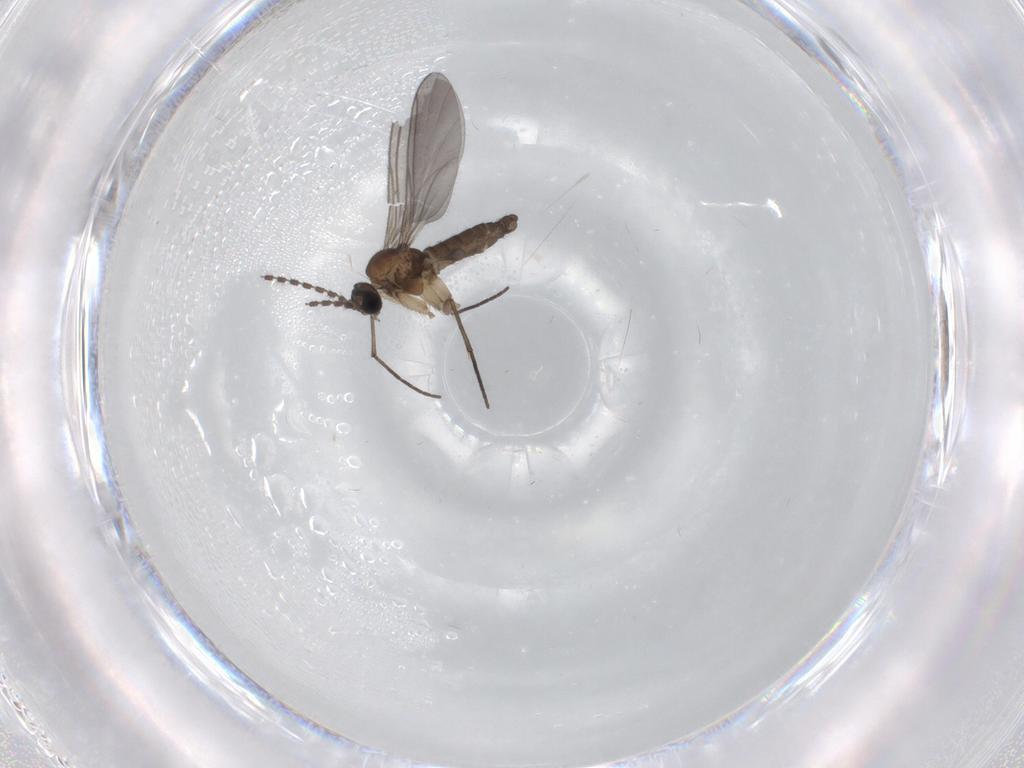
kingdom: Animalia
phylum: Arthropoda
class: Insecta
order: Diptera
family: Sciaridae
